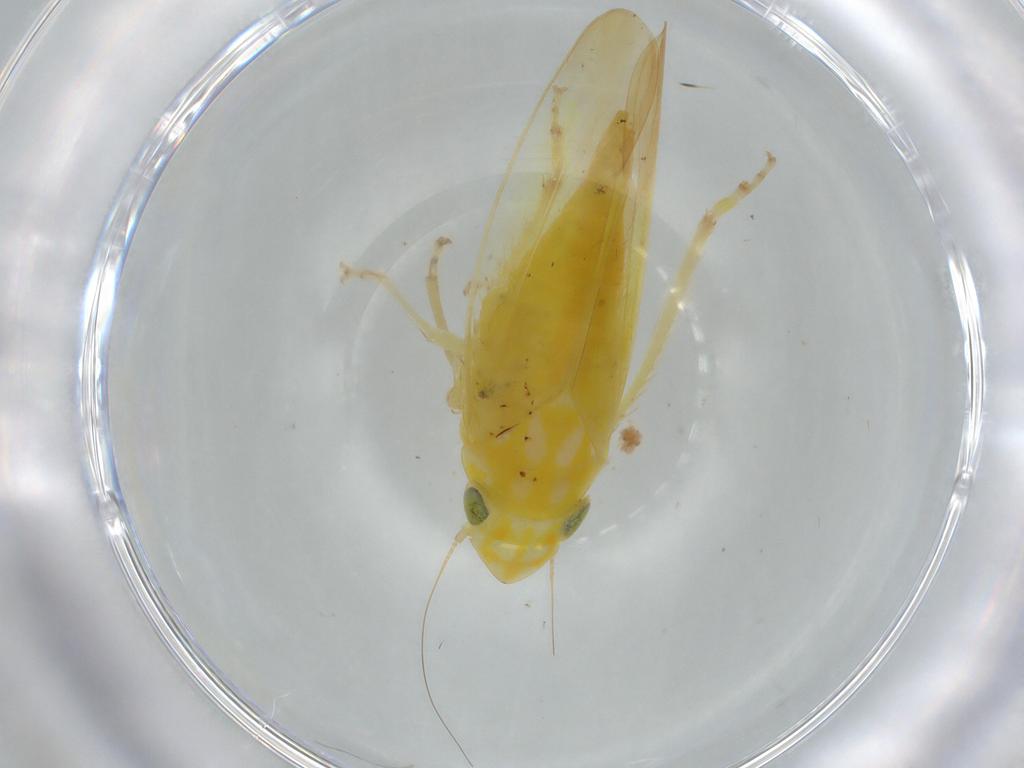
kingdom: Animalia
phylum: Arthropoda
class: Insecta
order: Hemiptera
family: Cicadellidae
